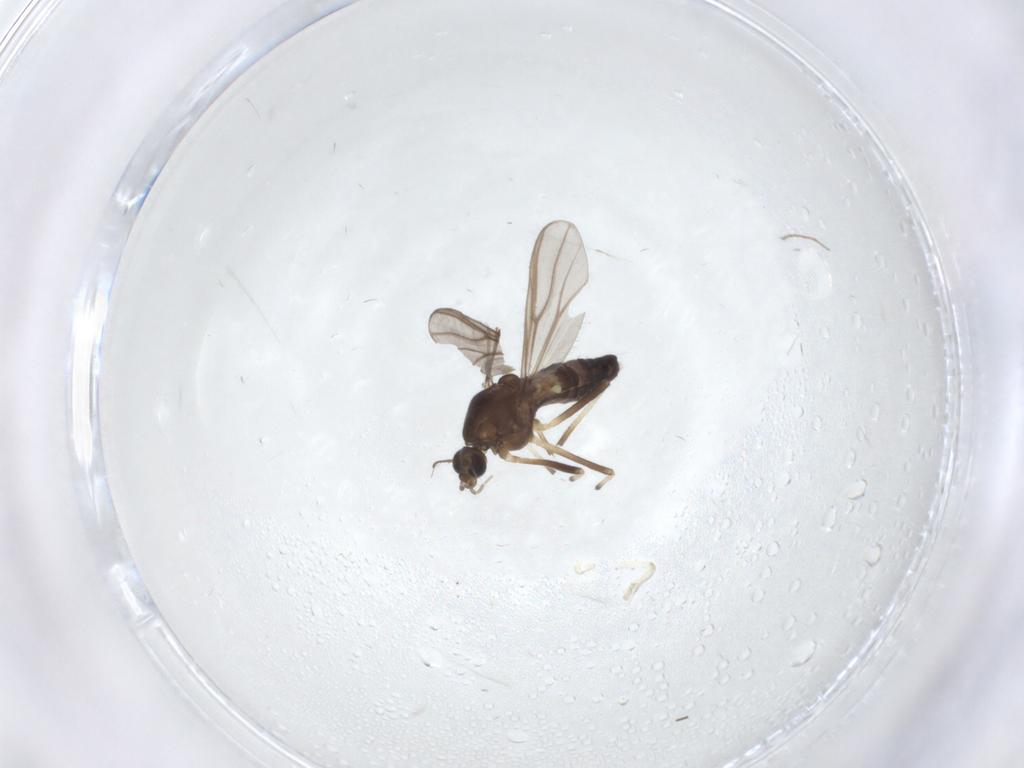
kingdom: Animalia
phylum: Arthropoda
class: Insecta
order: Diptera
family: Chironomidae
